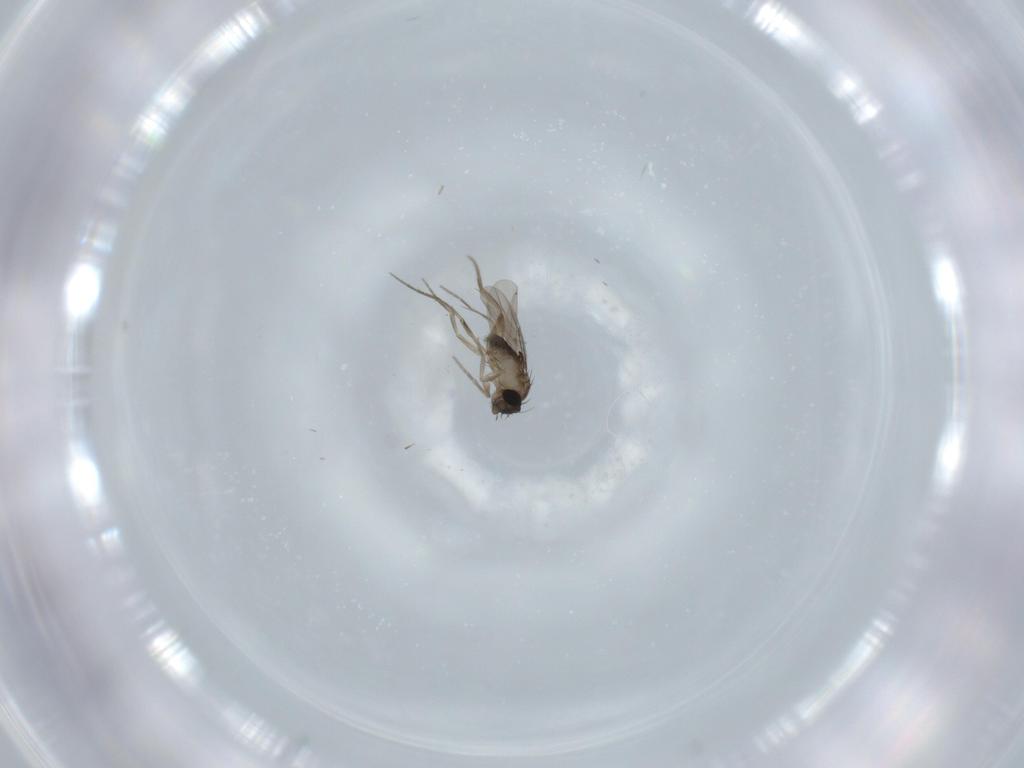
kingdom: Animalia
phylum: Arthropoda
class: Insecta
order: Diptera
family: Phoridae
